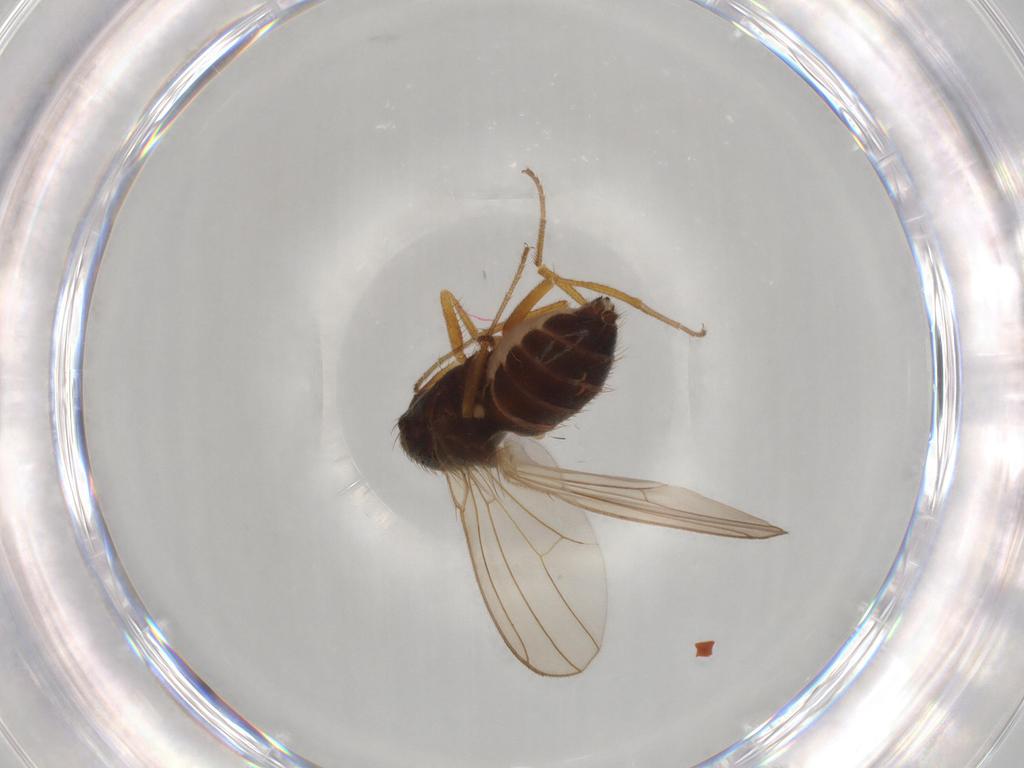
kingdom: Animalia
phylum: Arthropoda
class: Insecta
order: Diptera
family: Drosophilidae
